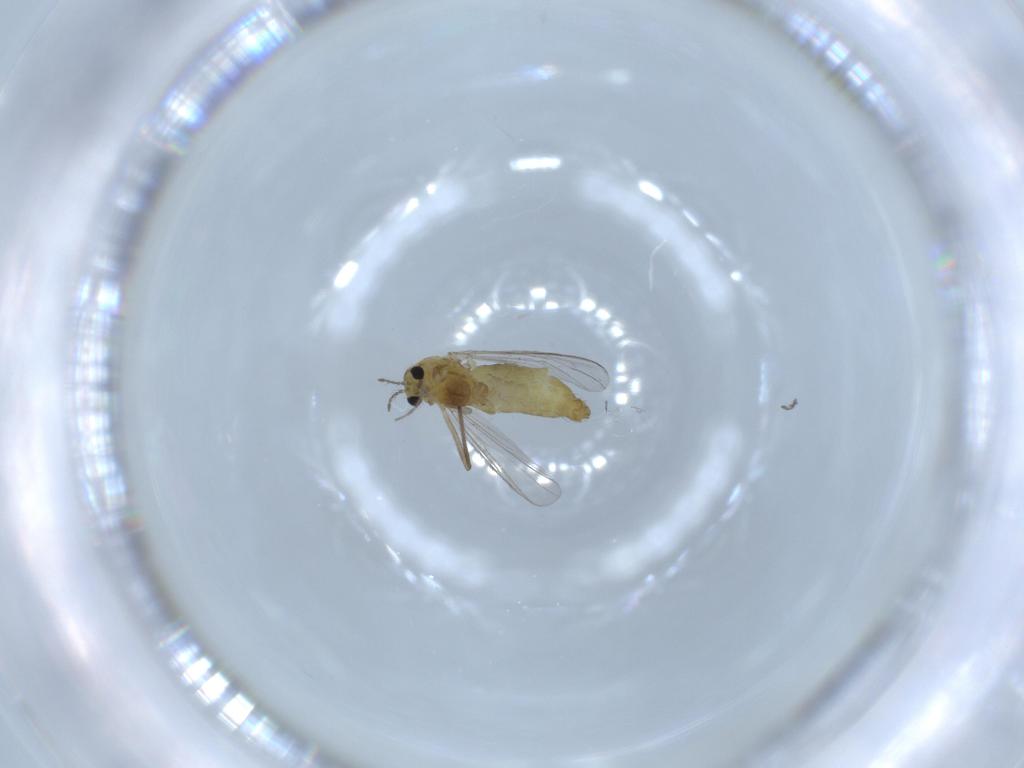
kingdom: Animalia
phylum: Arthropoda
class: Insecta
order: Diptera
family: Chironomidae
